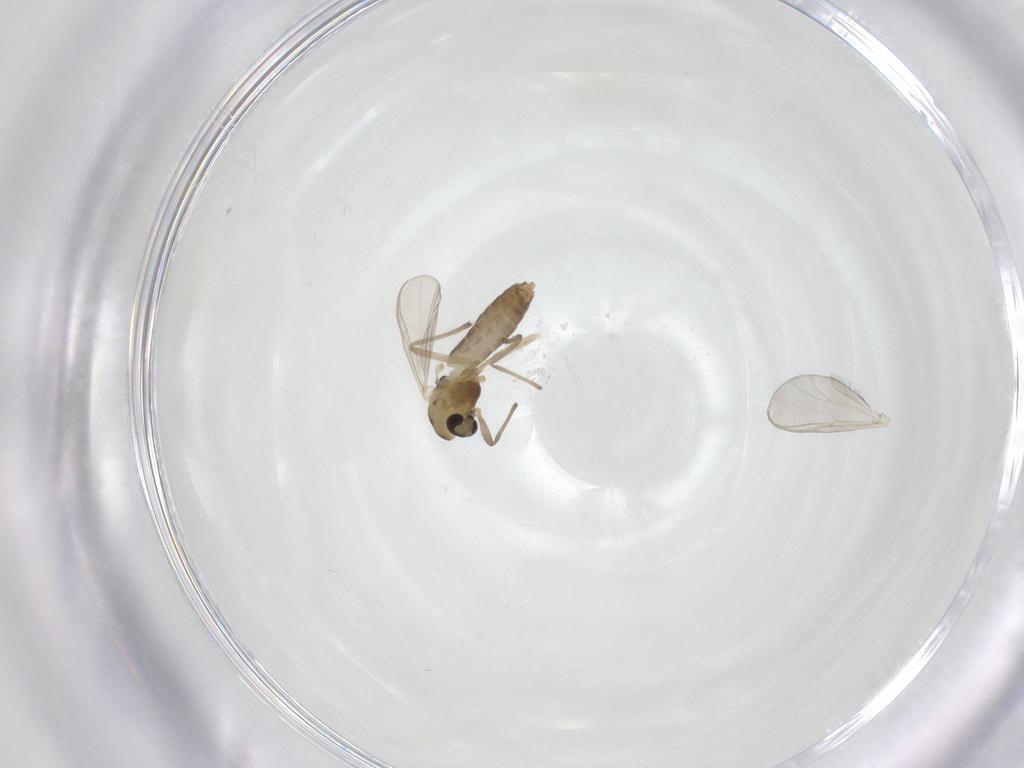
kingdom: Animalia
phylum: Arthropoda
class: Insecta
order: Diptera
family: Chironomidae
